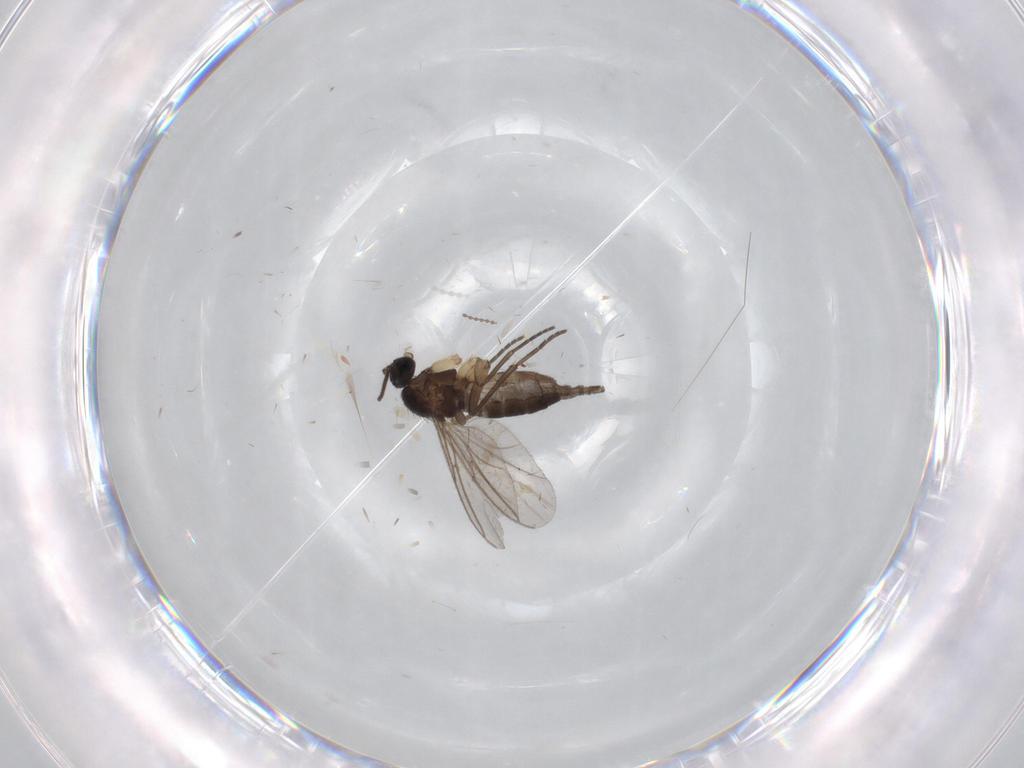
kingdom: Animalia
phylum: Arthropoda
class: Insecta
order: Diptera
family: Sciaridae
